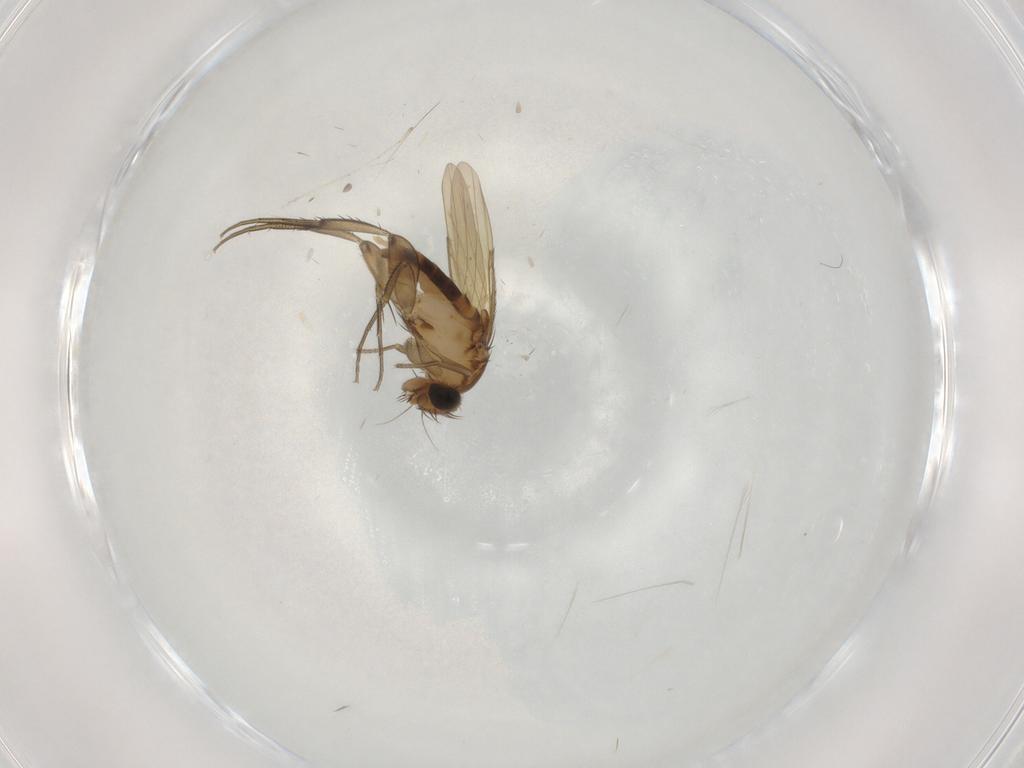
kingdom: Animalia
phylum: Arthropoda
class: Insecta
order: Diptera
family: Phoridae
